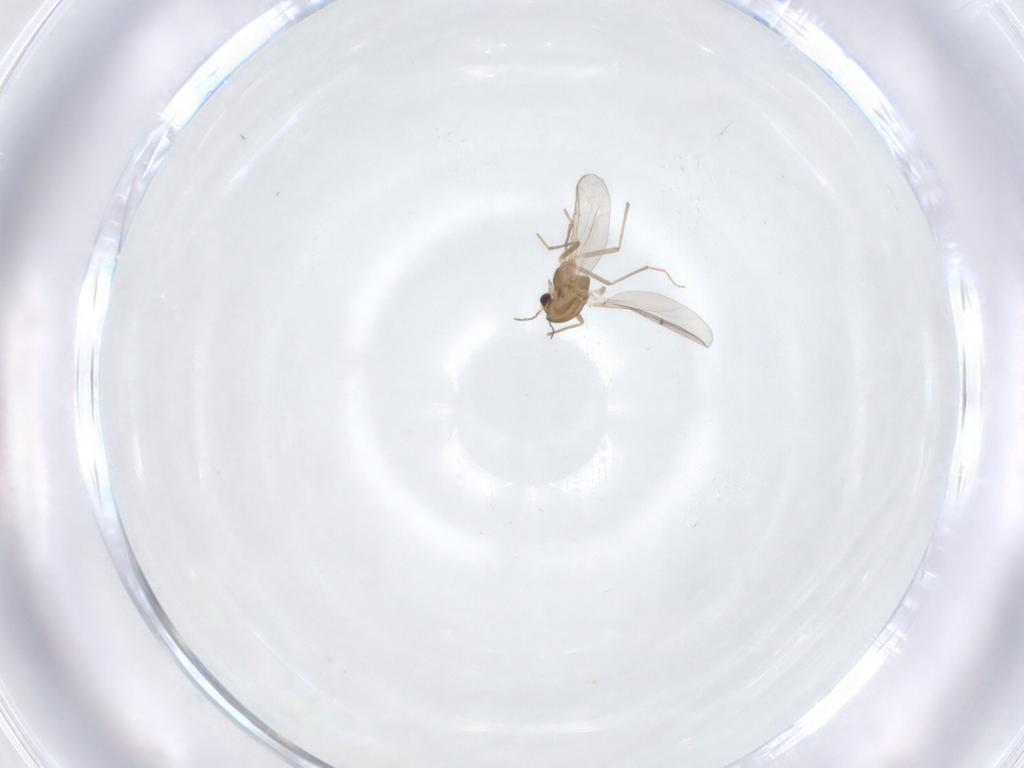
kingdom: Animalia
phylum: Arthropoda
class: Insecta
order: Diptera
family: Chironomidae
